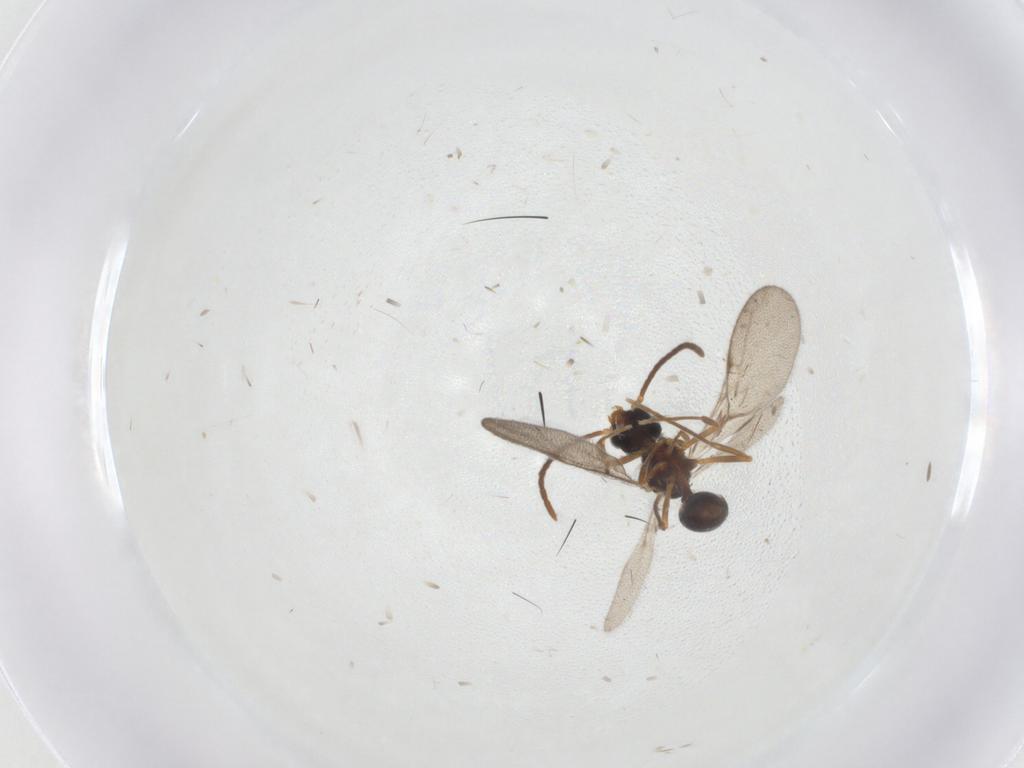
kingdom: Animalia
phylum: Arthropoda
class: Insecta
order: Hymenoptera
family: Formicidae
